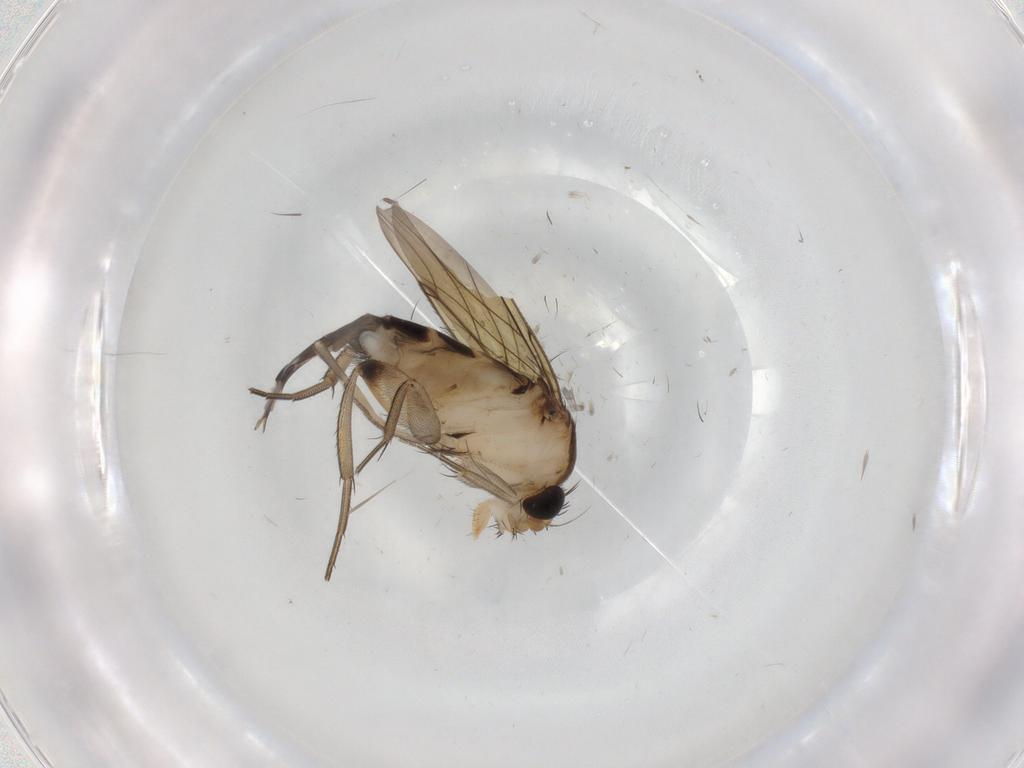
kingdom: Animalia
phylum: Arthropoda
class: Insecta
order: Diptera
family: Phoridae
